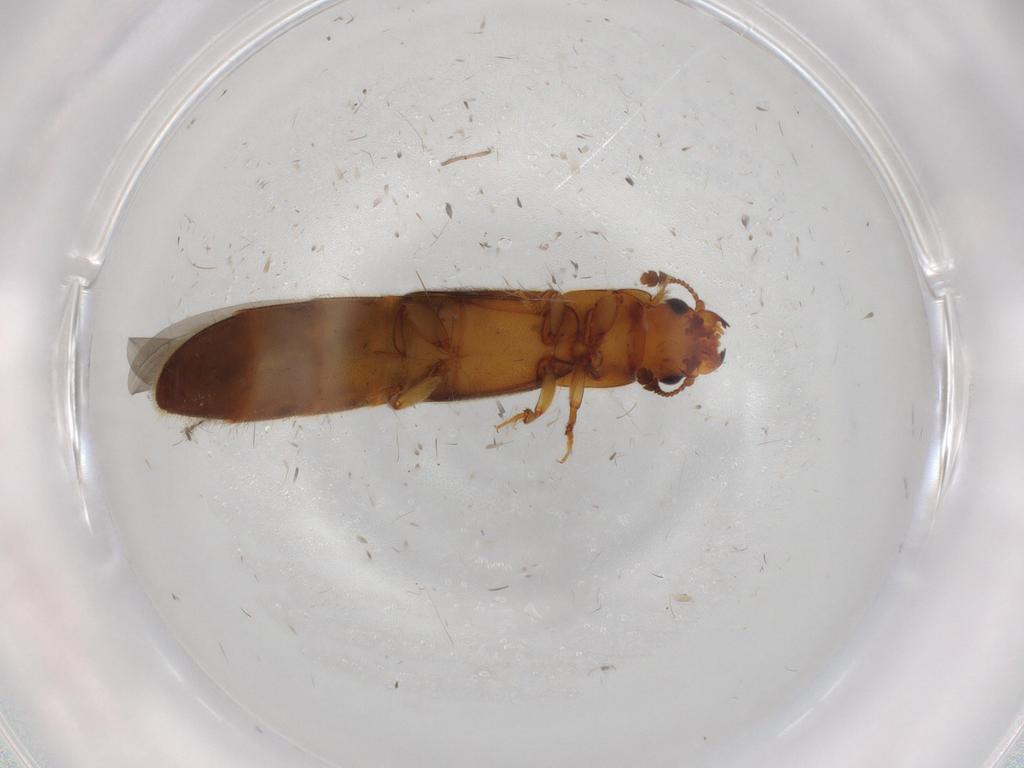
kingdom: Animalia
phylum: Arthropoda
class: Insecta
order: Coleoptera
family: Nitidulidae
